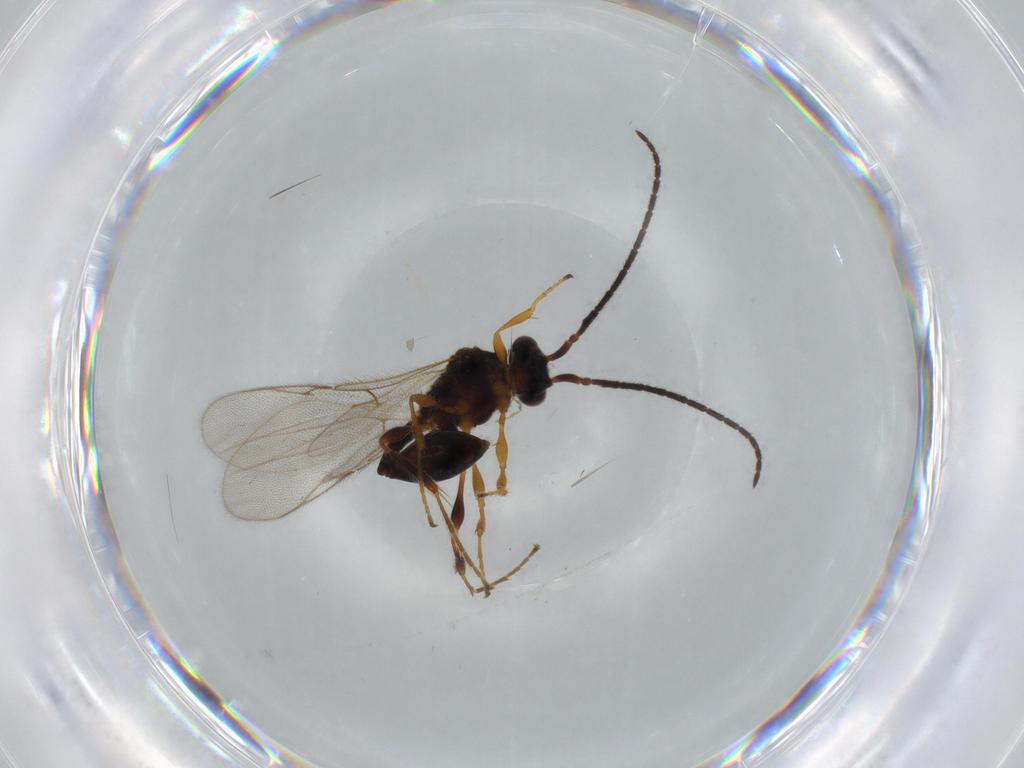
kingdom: Animalia
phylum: Arthropoda
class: Insecta
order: Hymenoptera
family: Diapriidae
